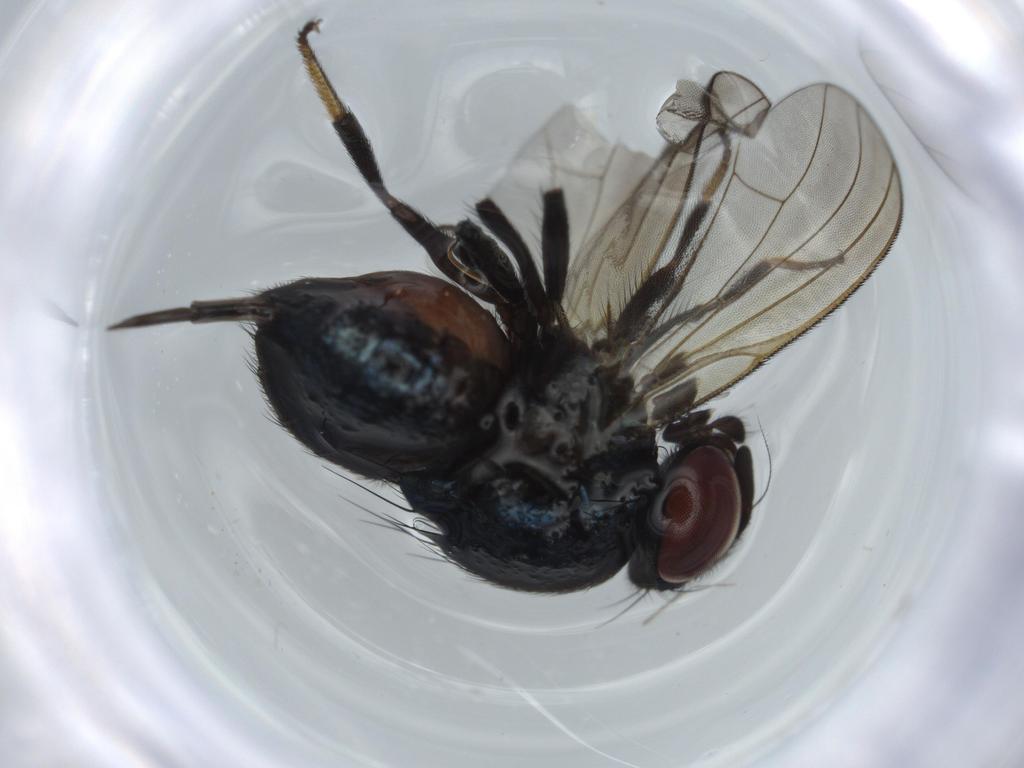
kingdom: Animalia
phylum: Arthropoda
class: Insecta
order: Diptera
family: Lonchaeidae
